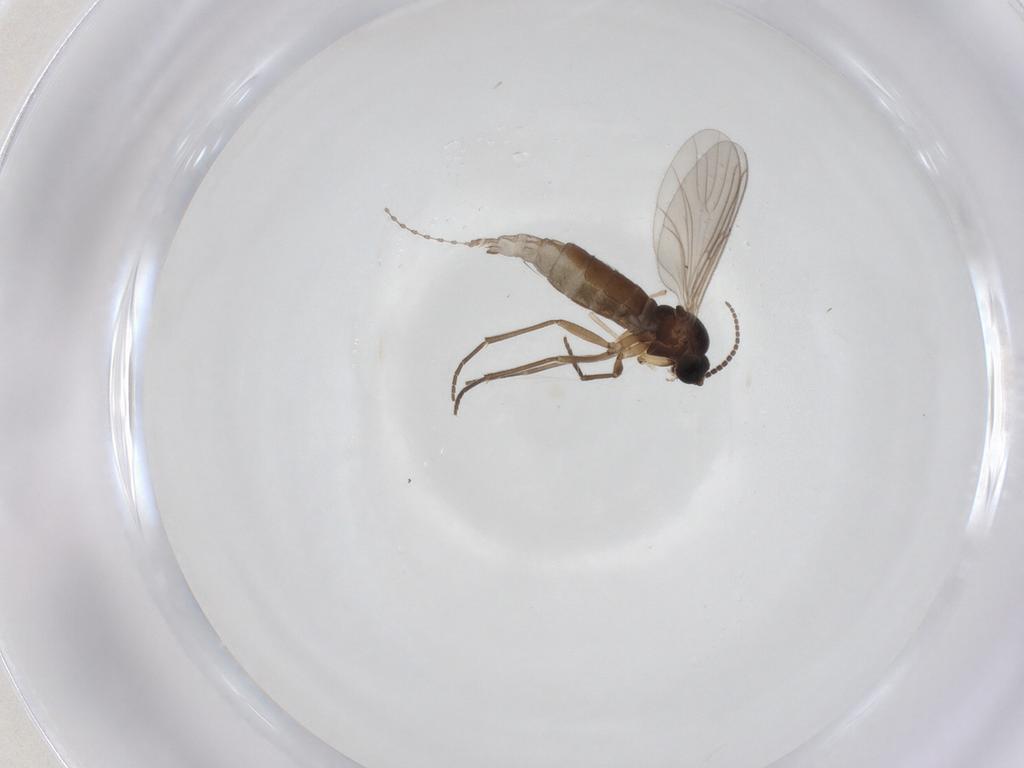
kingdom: Animalia
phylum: Arthropoda
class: Insecta
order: Diptera
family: Sciaridae
